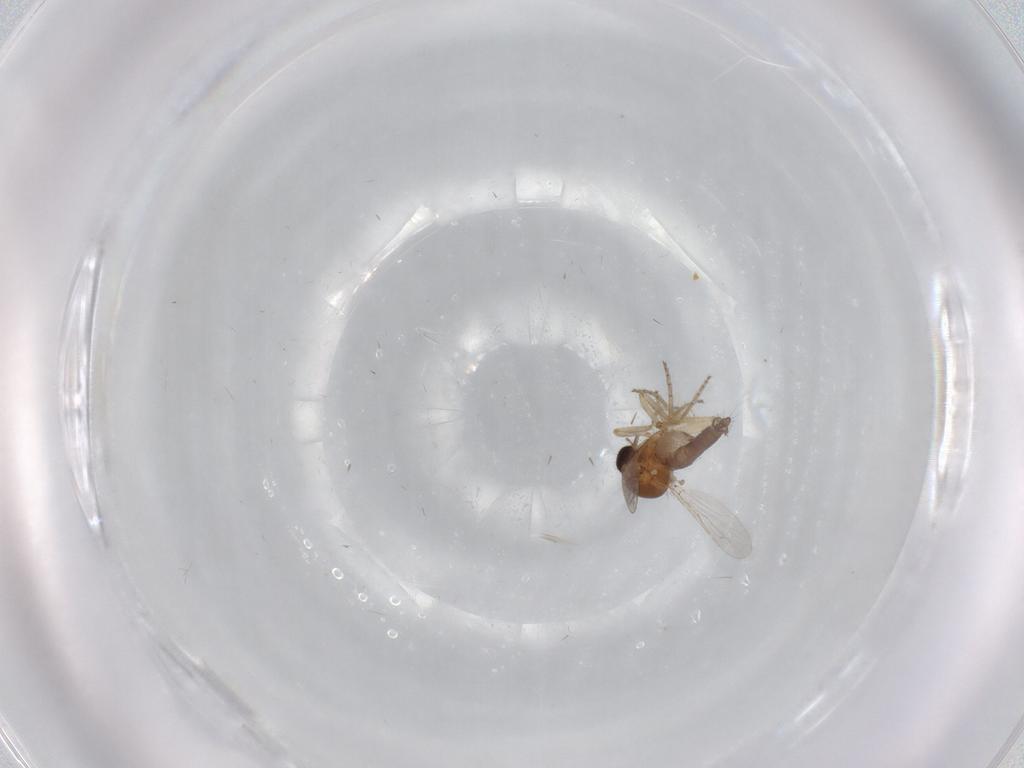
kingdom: Animalia
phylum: Arthropoda
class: Insecta
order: Diptera
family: Ceratopogonidae
